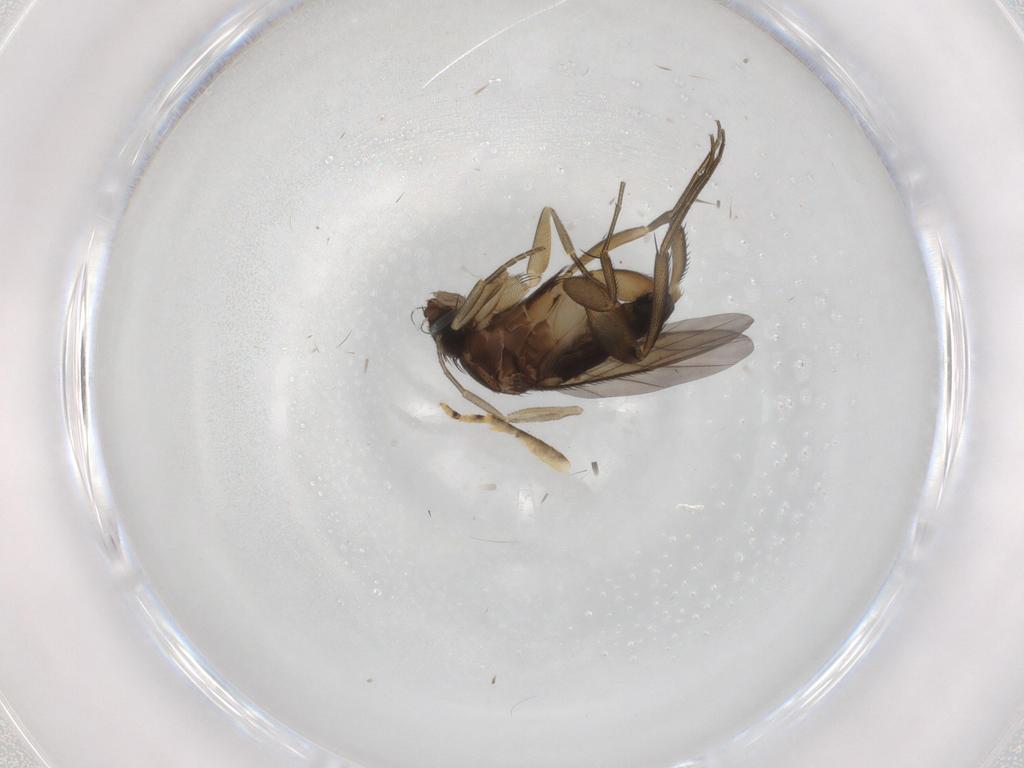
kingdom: Animalia
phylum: Arthropoda
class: Insecta
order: Diptera
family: Phoridae
